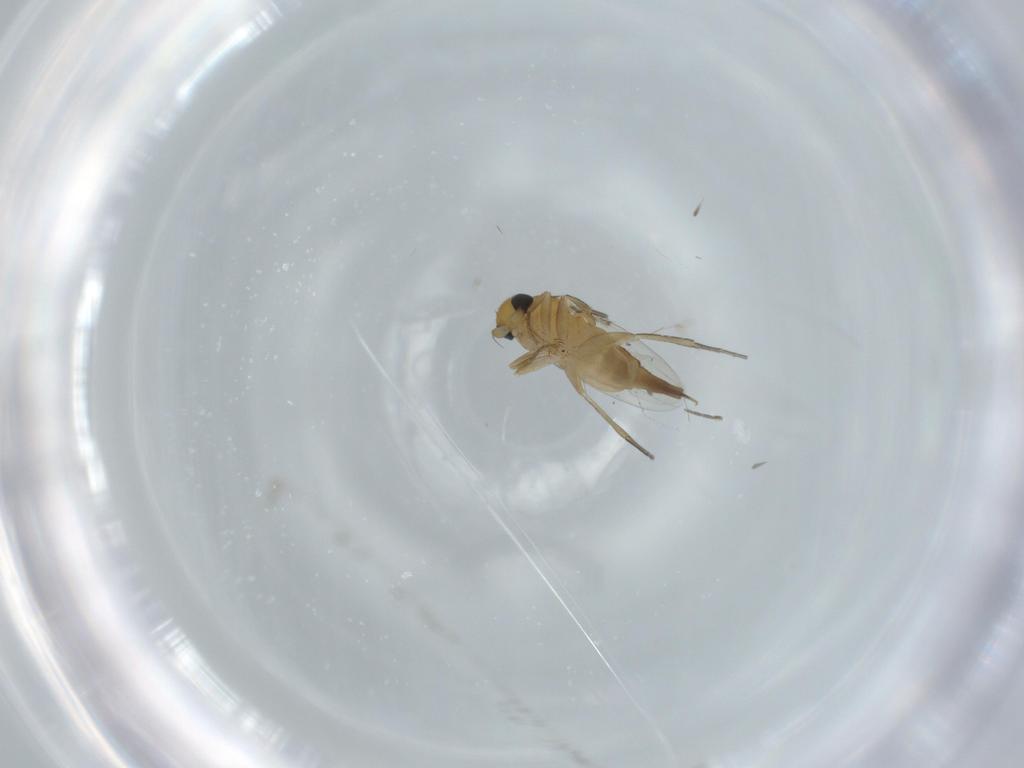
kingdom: Animalia
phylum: Arthropoda
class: Insecta
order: Diptera
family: Phoridae
